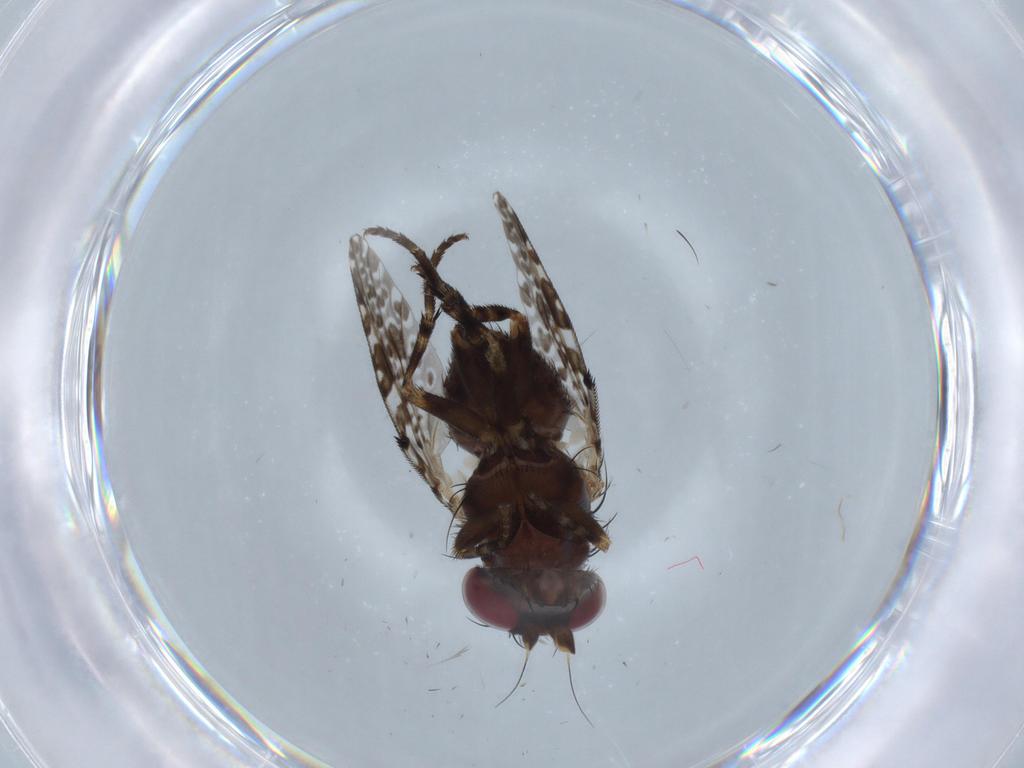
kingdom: Animalia
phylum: Arthropoda
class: Insecta
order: Diptera
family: Odiniidae
